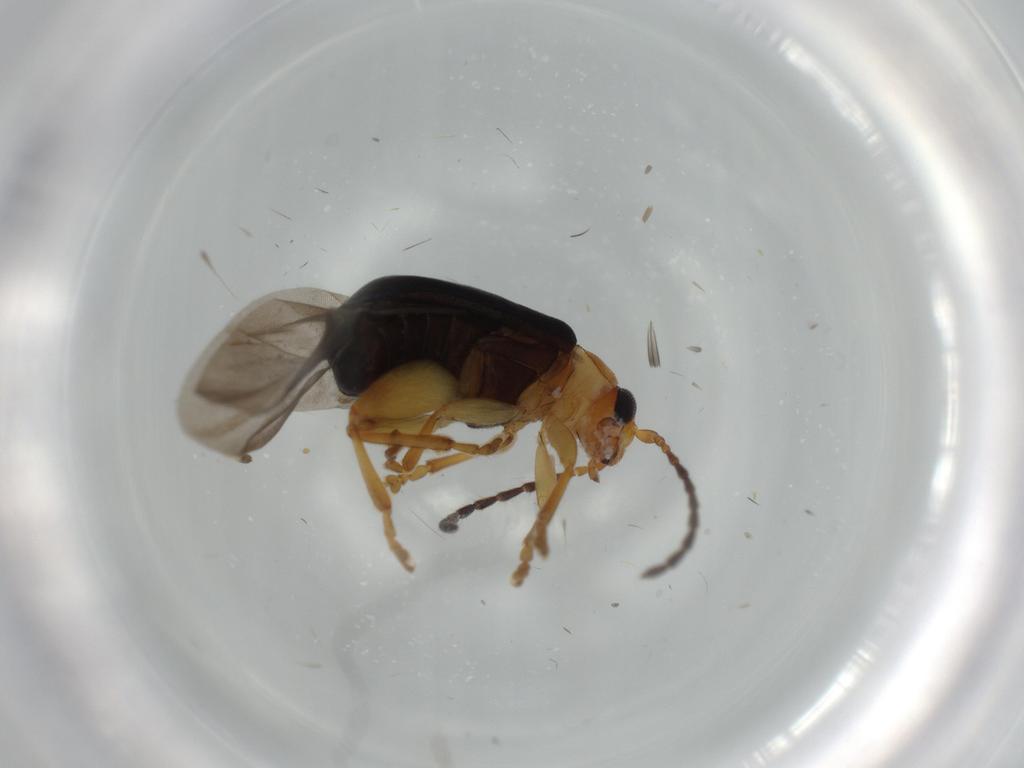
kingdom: Animalia
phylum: Arthropoda
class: Insecta
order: Coleoptera
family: Chrysomelidae
